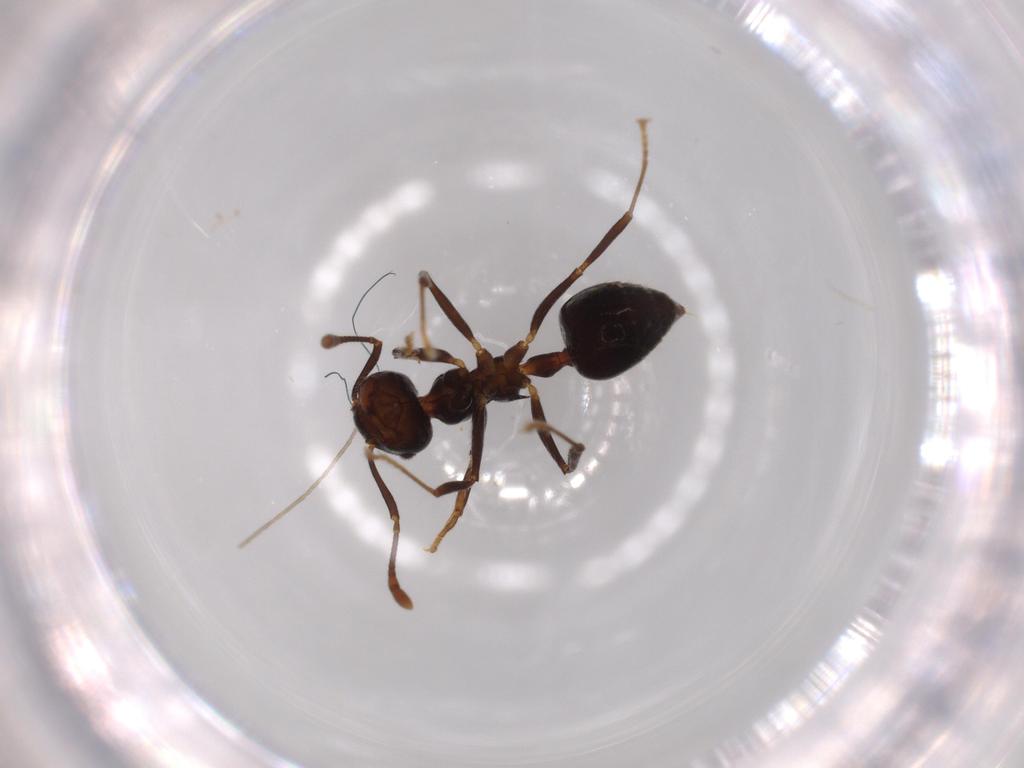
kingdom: Animalia
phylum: Arthropoda
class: Insecta
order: Hymenoptera
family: Formicidae
